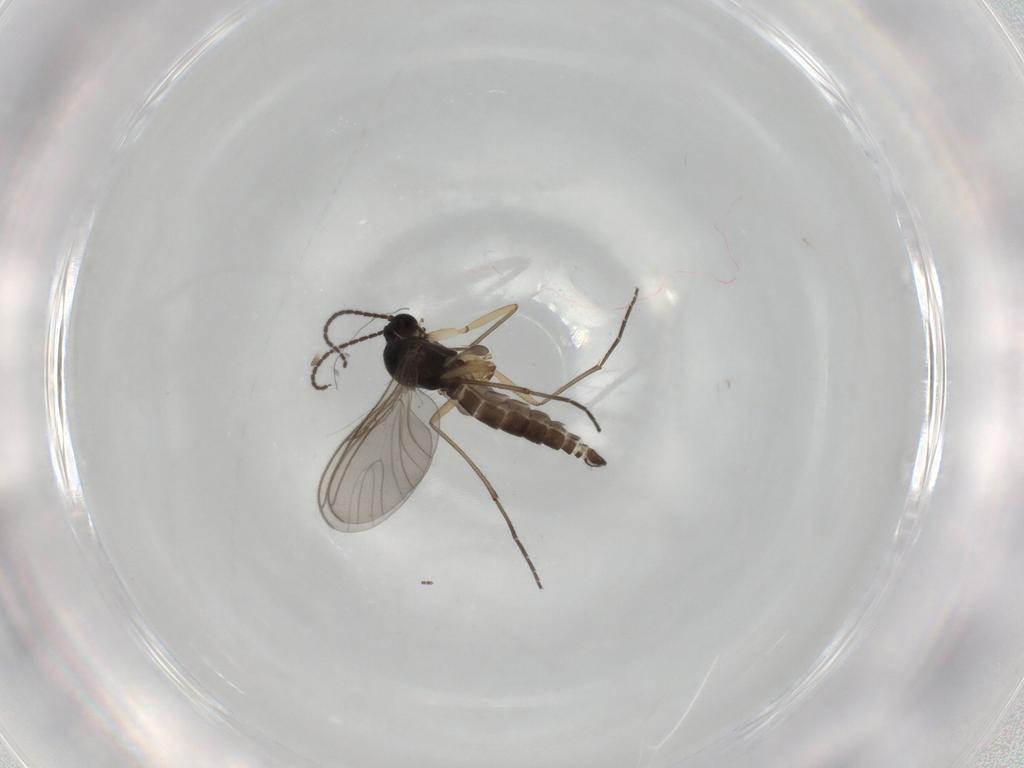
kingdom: Animalia
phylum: Arthropoda
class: Insecta
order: Diptera
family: Sciaridae
